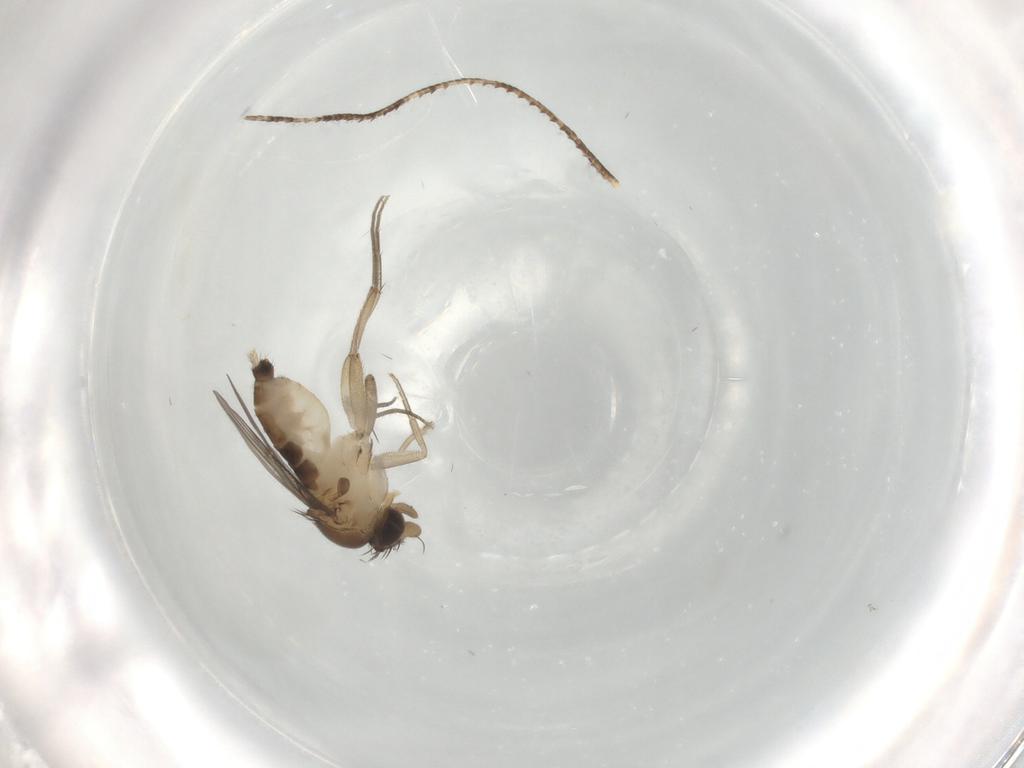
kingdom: Animalia
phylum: Arthropoda
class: Insecta
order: Diptera
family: Phoridae
